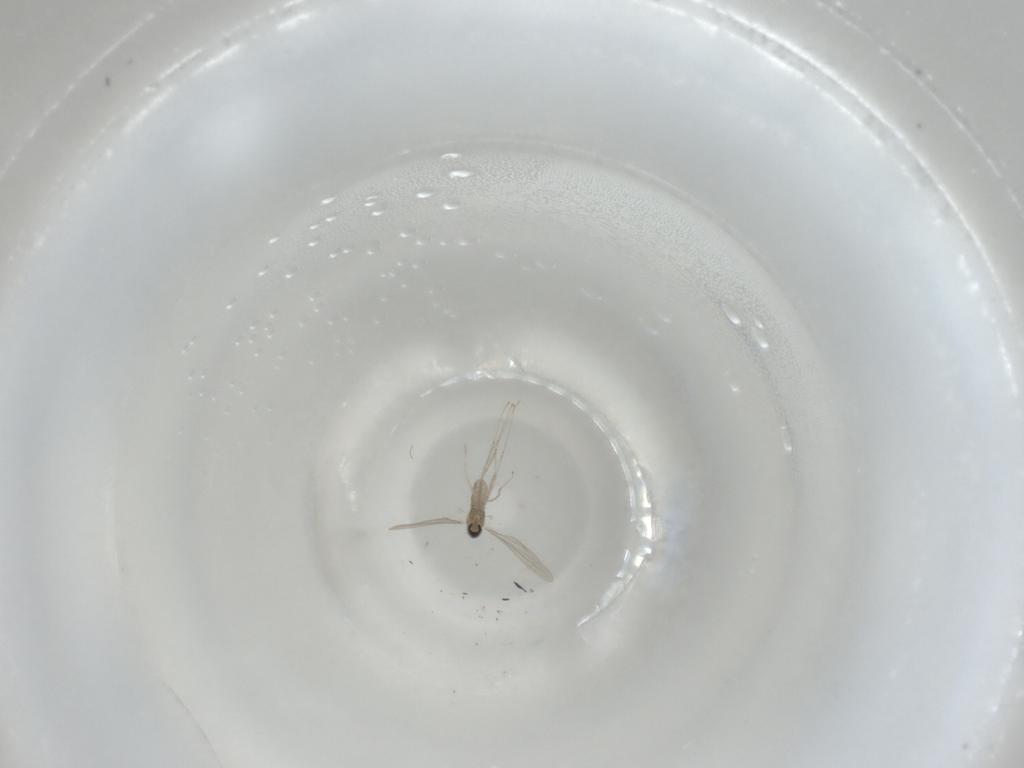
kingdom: Animalia
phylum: Arthropoda
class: Insecta
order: Diptera
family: Cecidomyiidae
